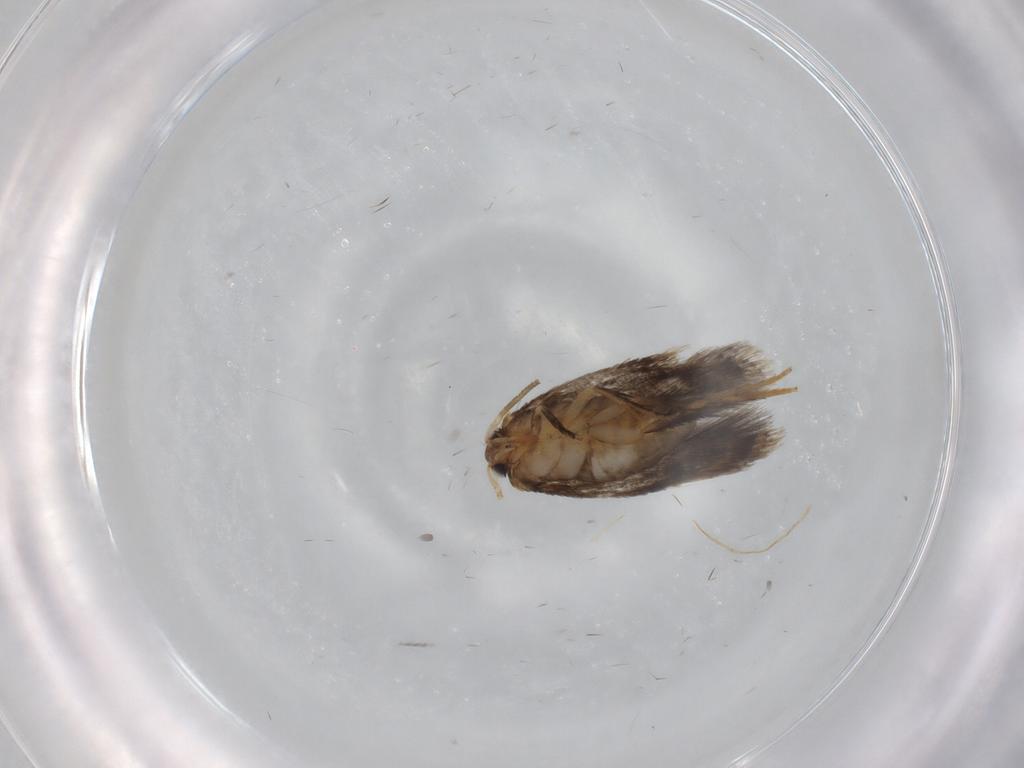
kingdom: Animalia
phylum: Arthropoda
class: Insecta
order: Lepidoptera
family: Nepticulidae
